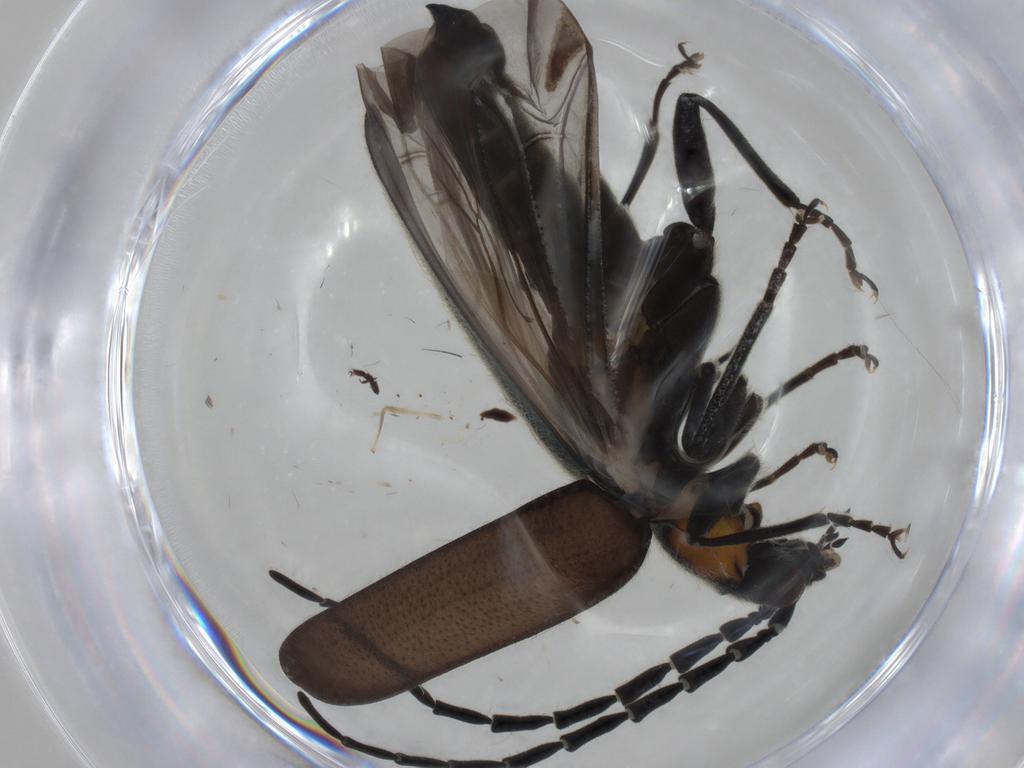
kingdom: Animalia
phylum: Arthropoda
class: Insecta
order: Coleoptera
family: Cantharidae
